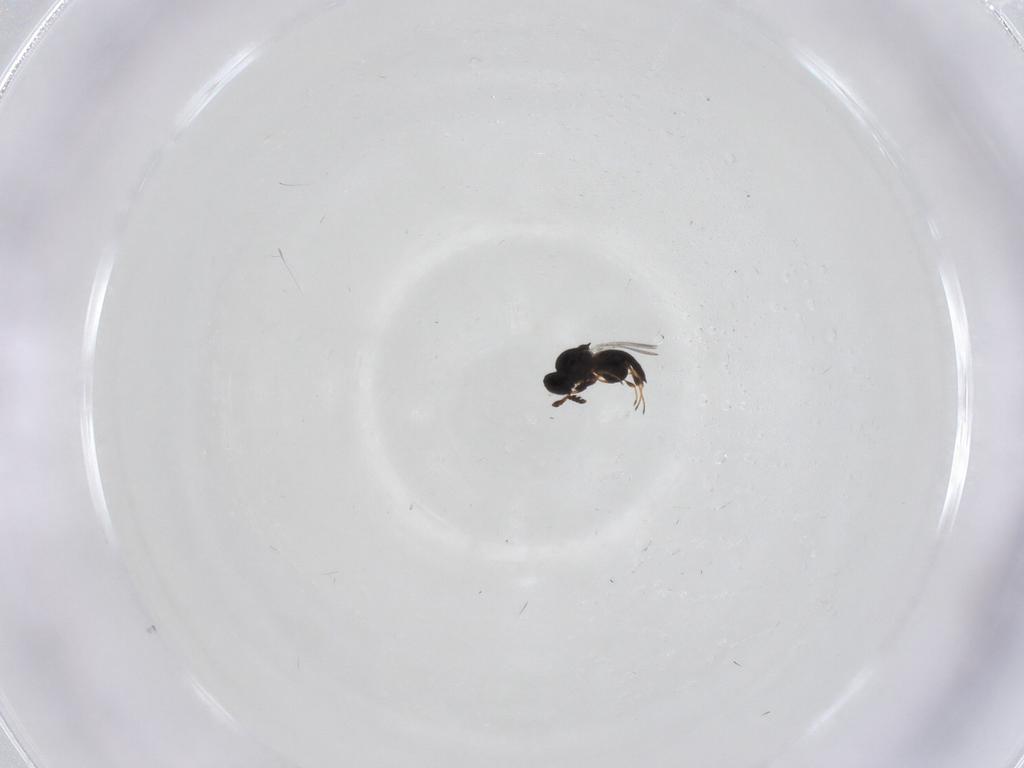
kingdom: Animalia
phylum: Arthropoda
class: Insecta
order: Hymenoptera
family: Platygastridae
